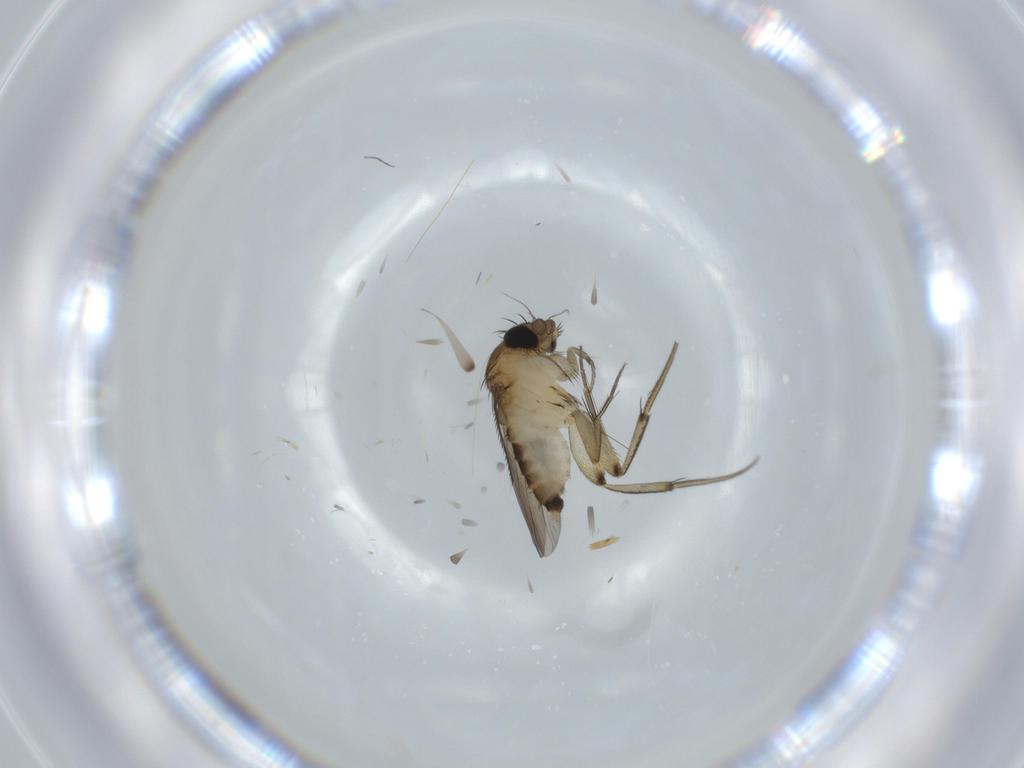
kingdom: Animalia
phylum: Arthropoda
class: Insecta
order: Diptera
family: Phoridae
